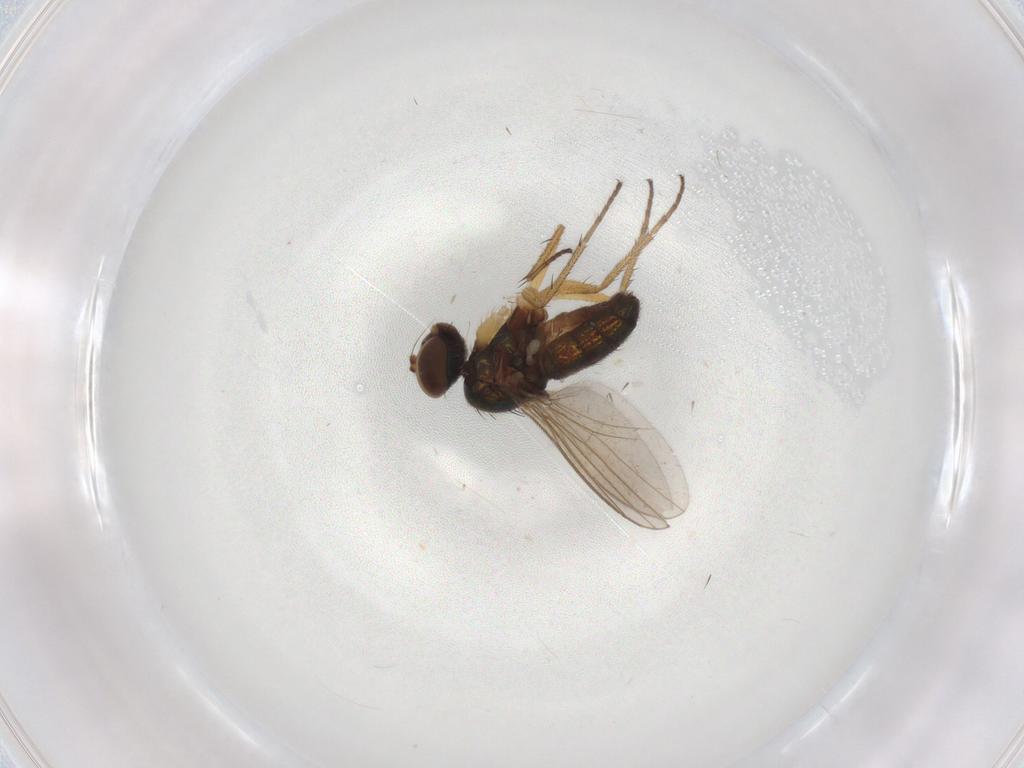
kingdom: Animalia
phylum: Arthropoda
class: Insecta
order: Diptera
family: Dolichopodidae
